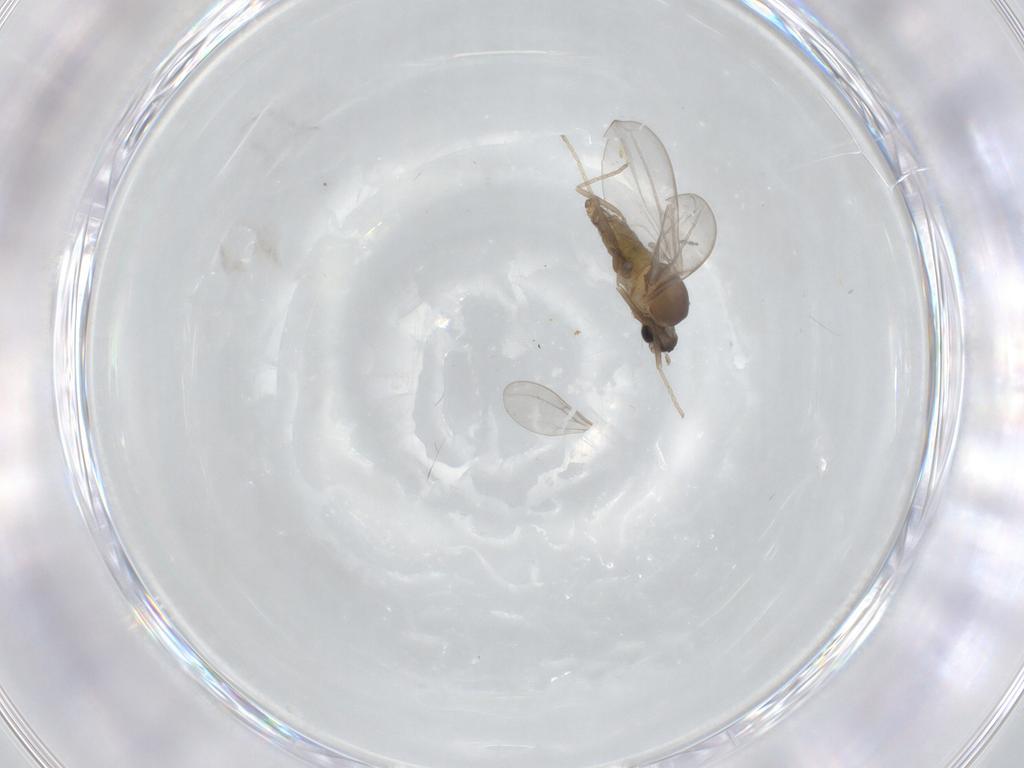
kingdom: Animalia
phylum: Arthropoda
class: Insecta
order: Diptera
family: Cecidomyiidae
